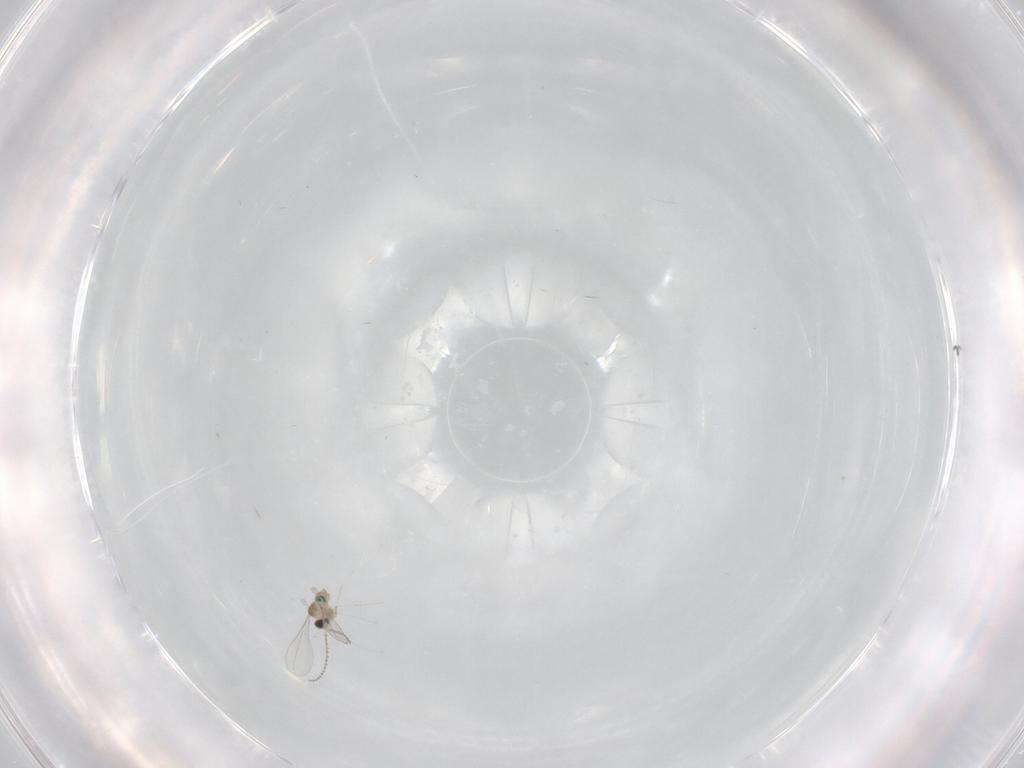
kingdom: Animalia
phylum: Arthropoda
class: Insecta
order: Diptera
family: Cecidomyiidae
